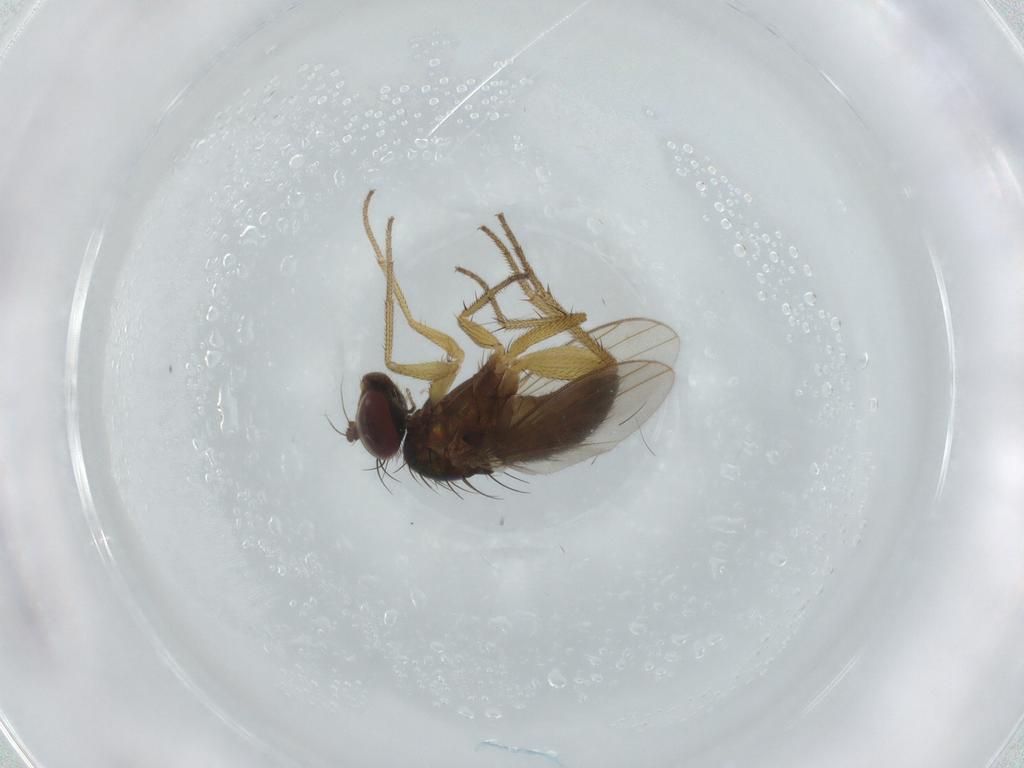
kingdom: Animalia
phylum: Arthropoda
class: Insecta
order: Diptera
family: Dolichopodidae
